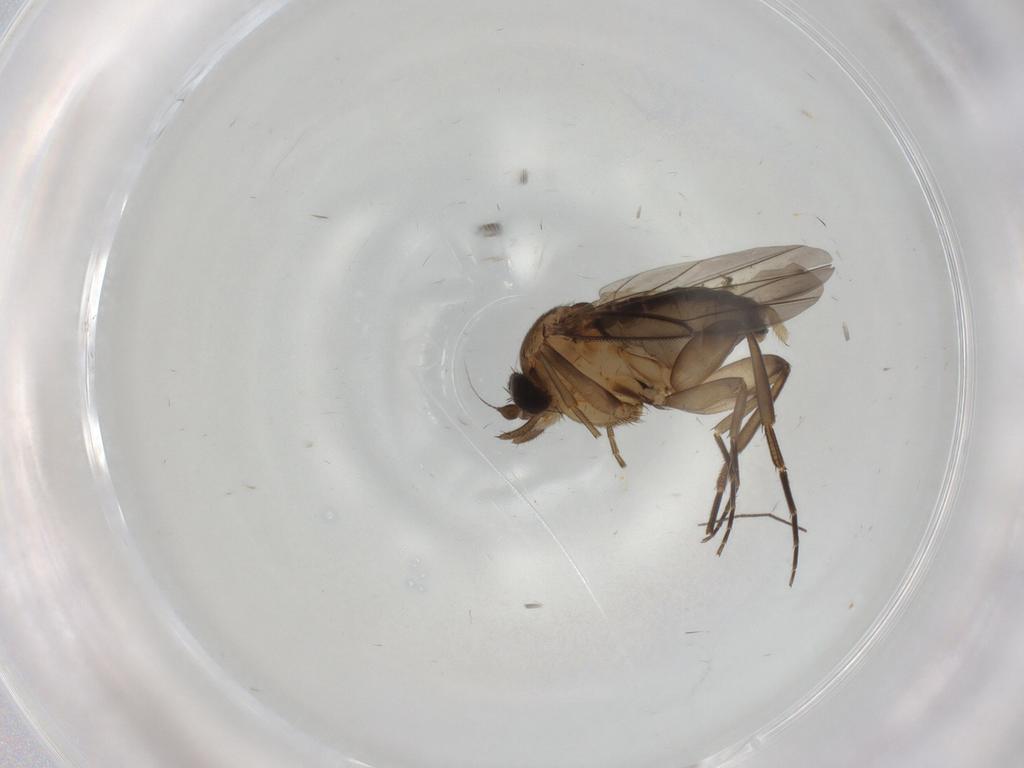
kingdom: Animalia
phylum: Arthropoda
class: Insecta
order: Diptera
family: Phoridae
